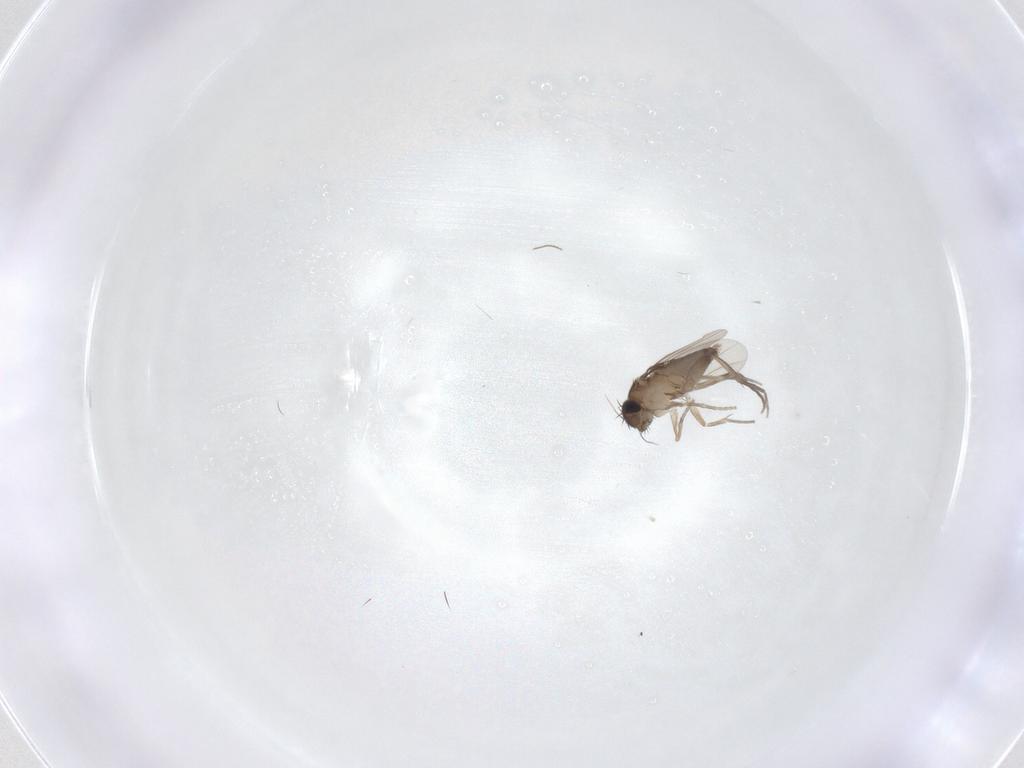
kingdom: Animalia
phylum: Arthropoda
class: Insecta
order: Diptera
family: Phoridae
